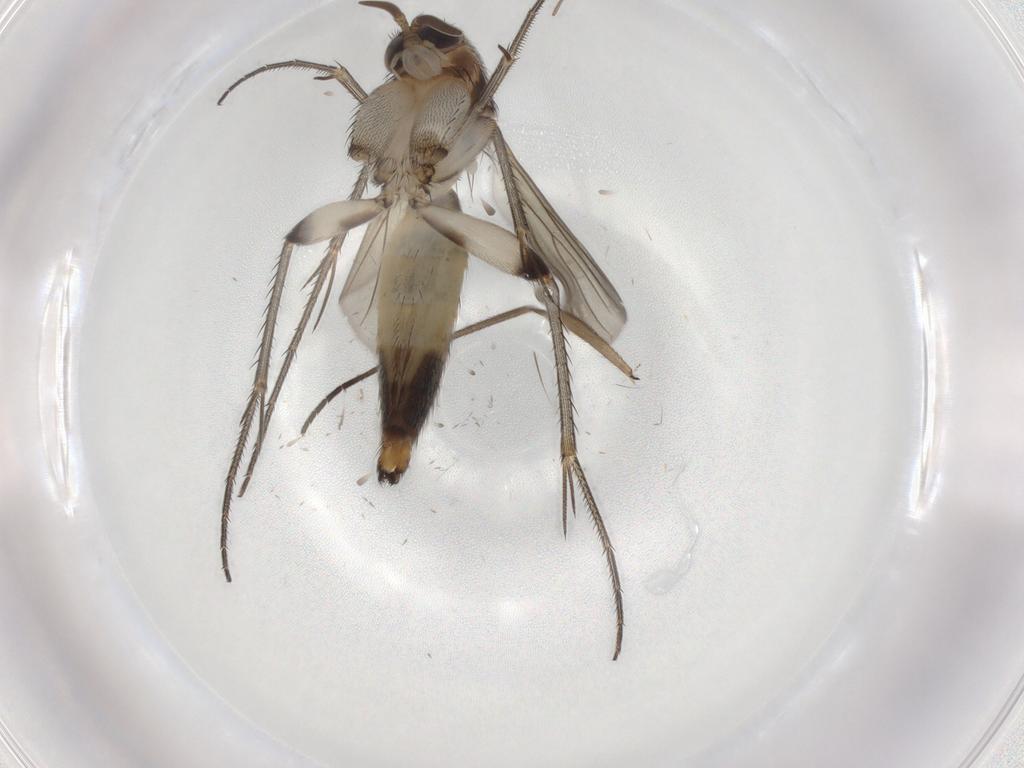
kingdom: Animalia
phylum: Arthropoda
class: Insecta
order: Diptera
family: Mycetophilidae
